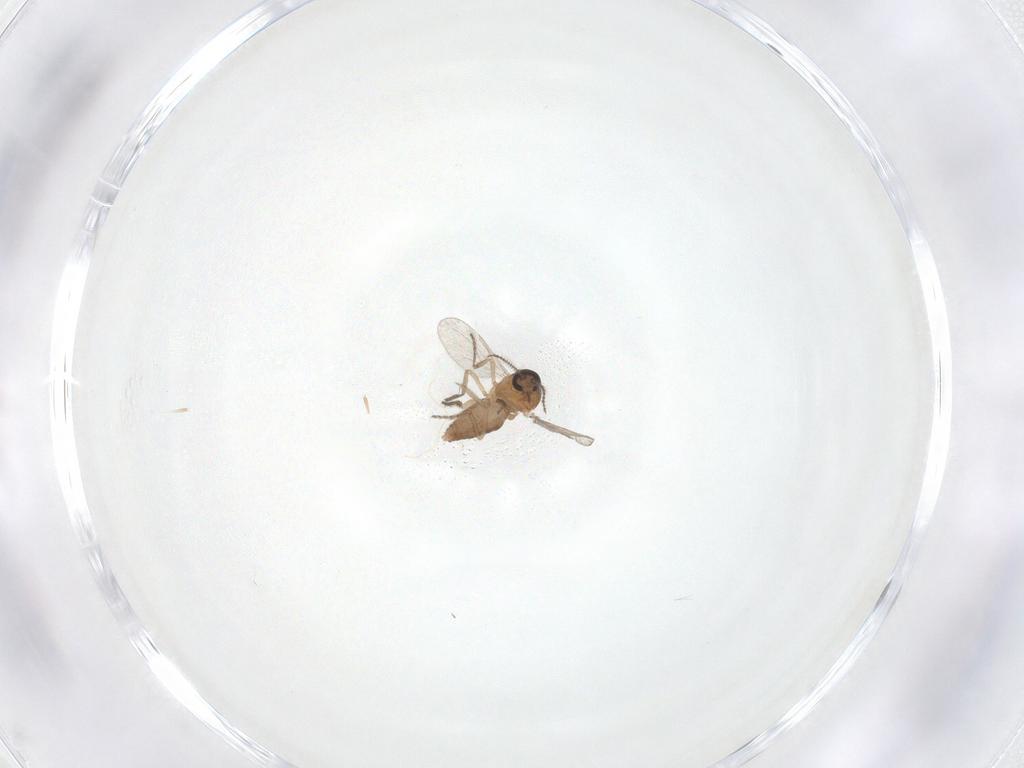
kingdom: Animalia
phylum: Arthropoda
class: Insecta
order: Diptera
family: Ceratopogonidae
